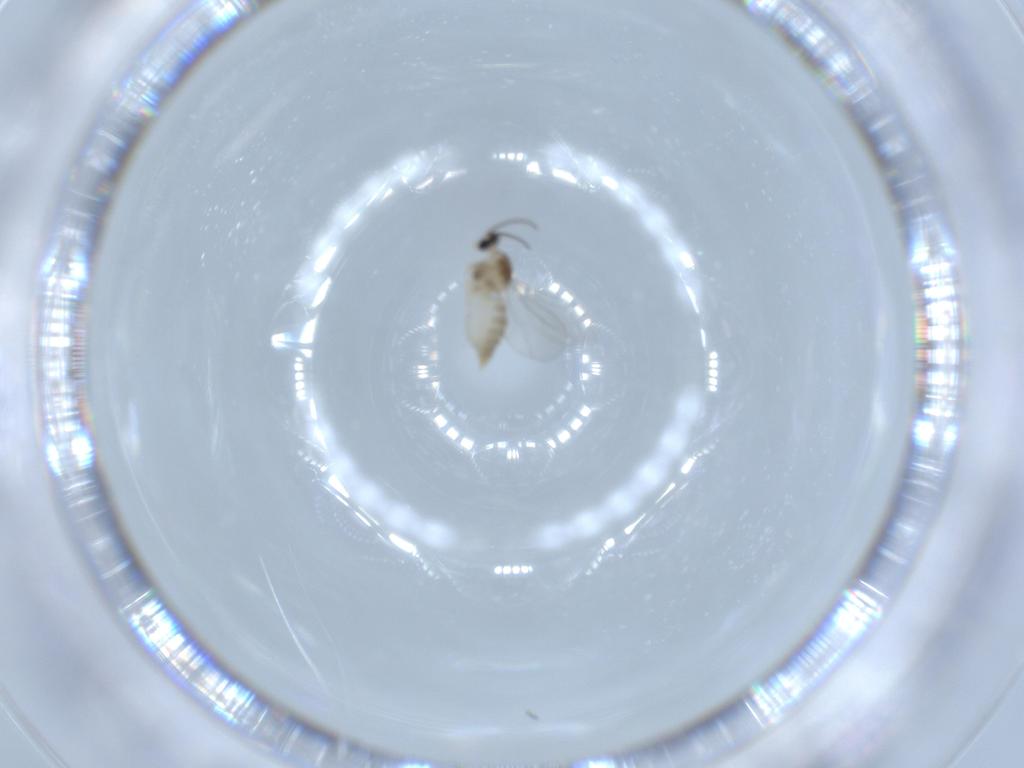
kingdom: Animalia
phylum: Arthropoda
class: Insecta
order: Diptera
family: Cecidomyiidae
